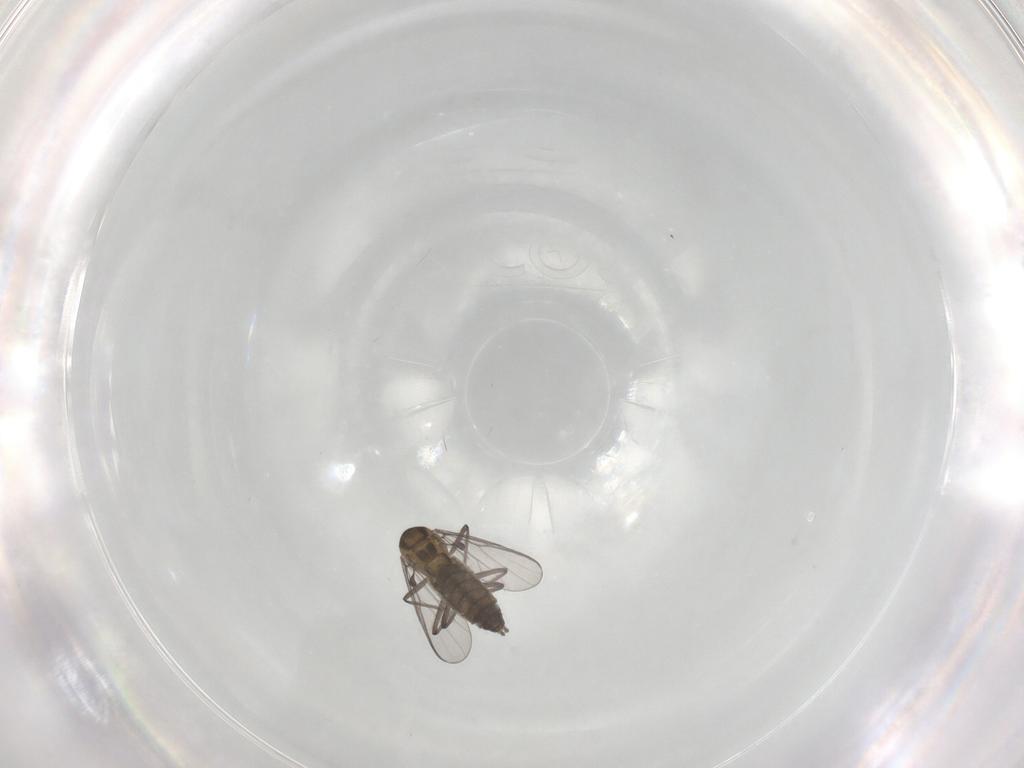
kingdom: Animalia
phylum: Arthropoda
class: Insecta
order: Diptera
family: Chironomidae
